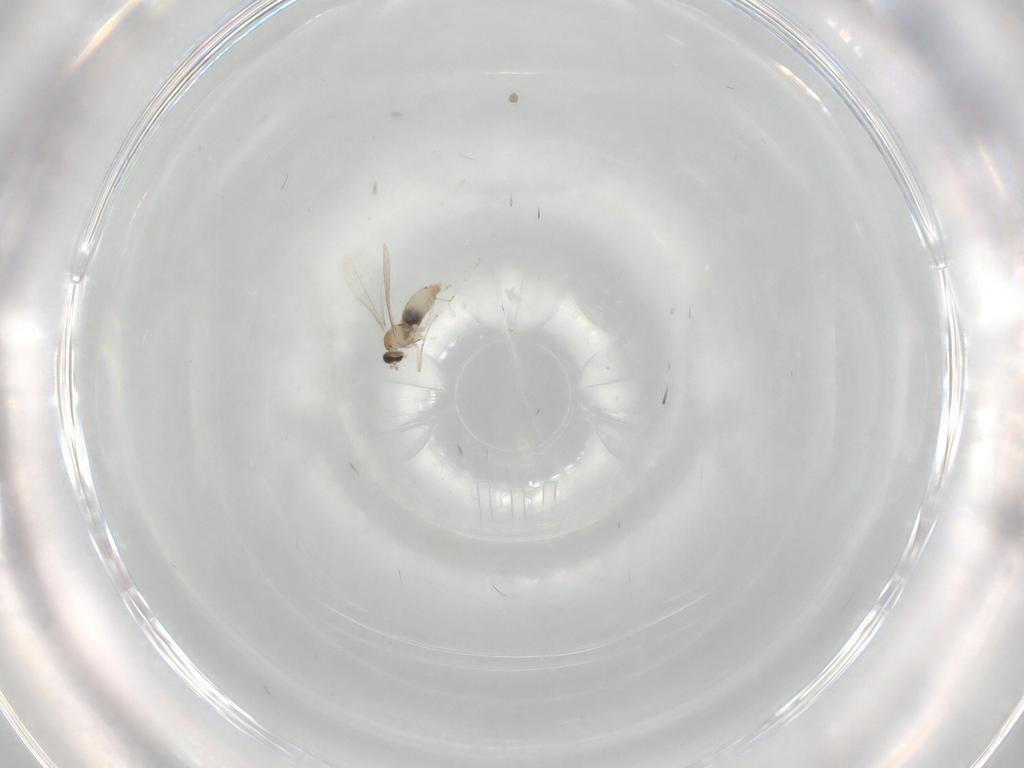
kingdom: Animalia
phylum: Arthropoda
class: Insecta
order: Diptera
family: Cecidomyiidae
